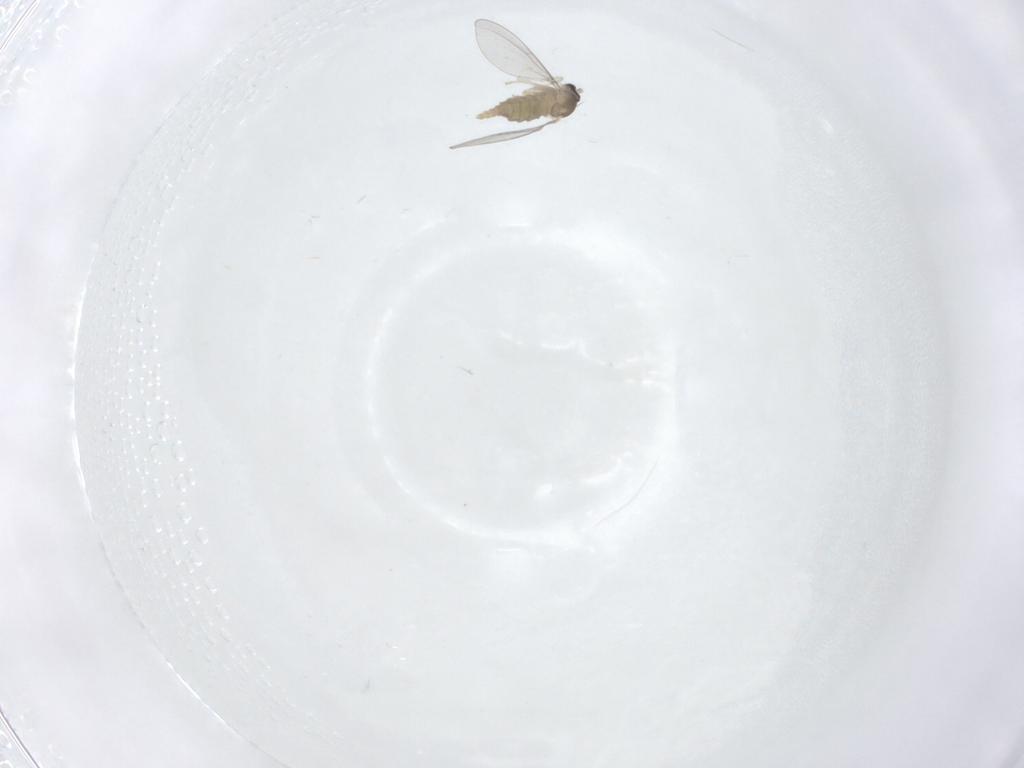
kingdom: Animalia
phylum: Arthropoda
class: Insecta
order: Diptera
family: Cecidomyiidae
